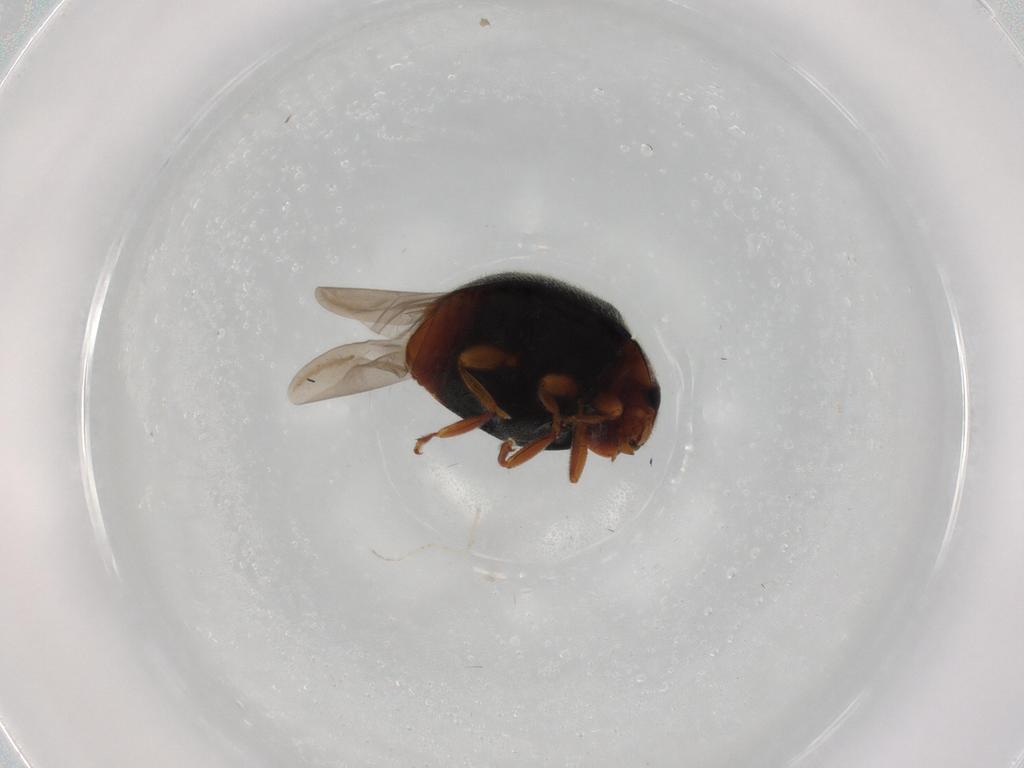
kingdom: Animalia
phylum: Arthropoda
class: Insecta
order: Coleoptera
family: Coccinellidae
